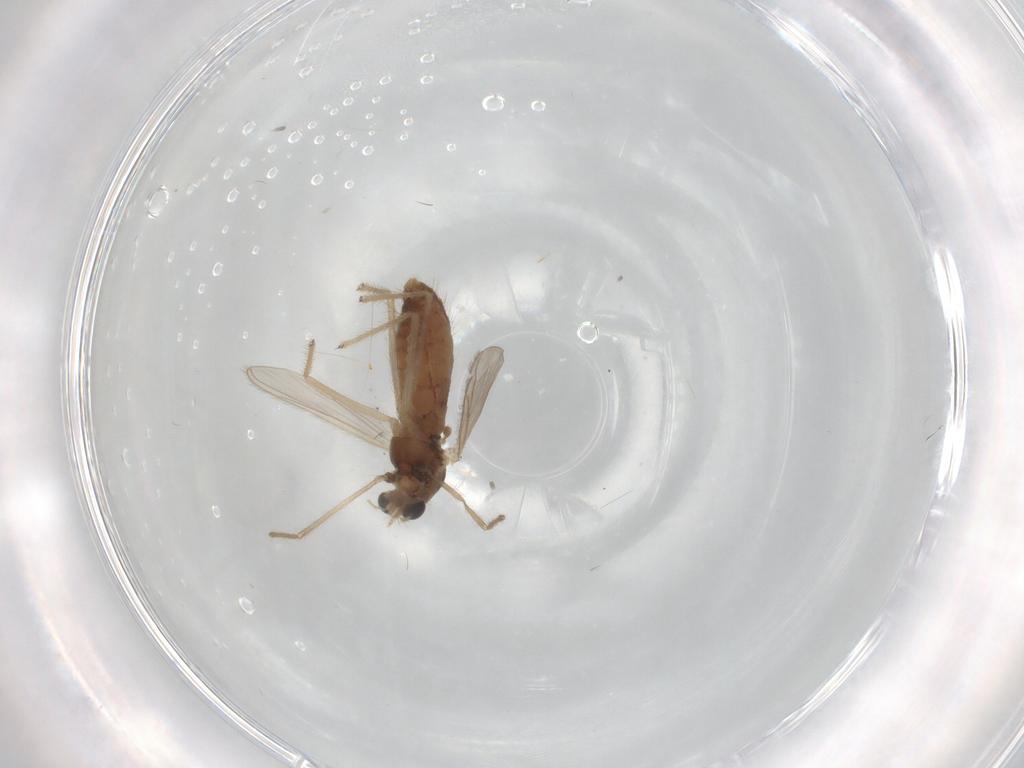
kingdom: Animalia
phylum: Arthropoda
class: Insecta
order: Diptera
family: Chironomidae
